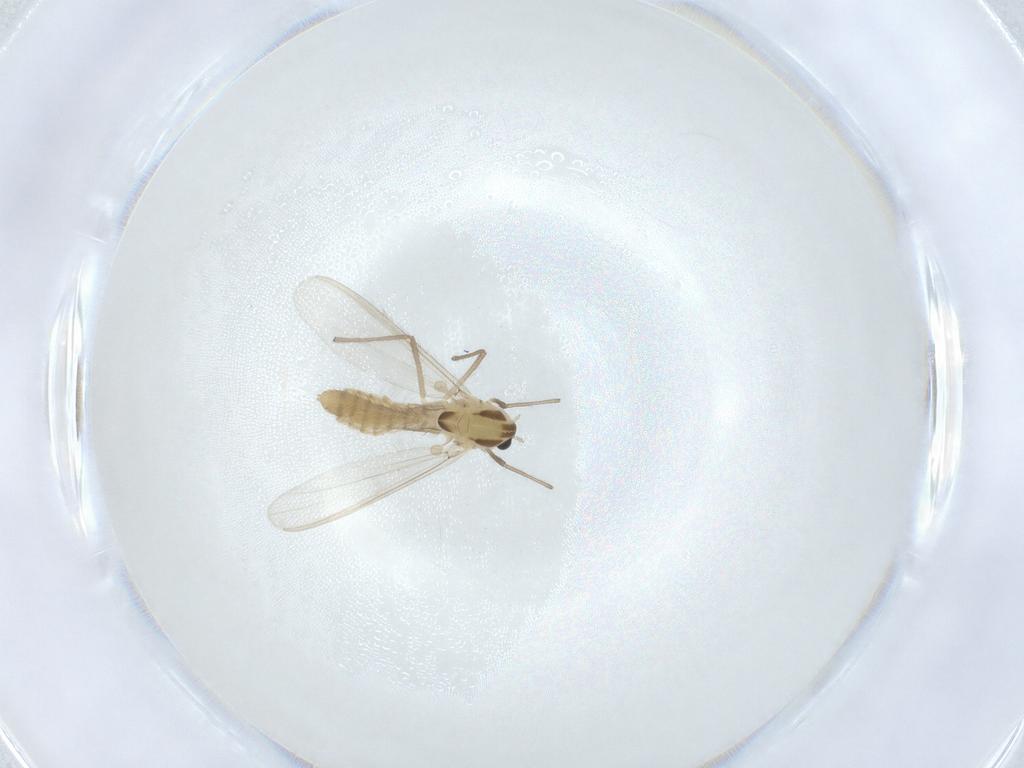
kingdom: Animalia
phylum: Arthropoda
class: Insecta
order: Diptera
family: Chironomidae
